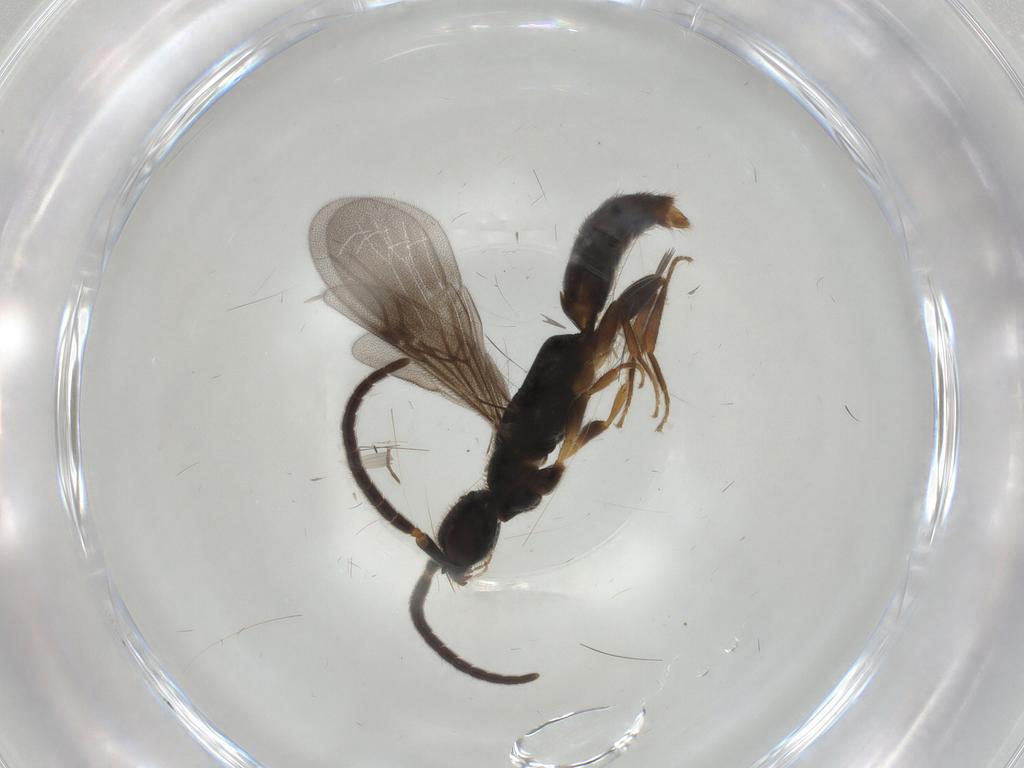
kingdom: Animalia
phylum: Arthropoda
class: Insecta
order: Hymenoptera
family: Bethylidae
